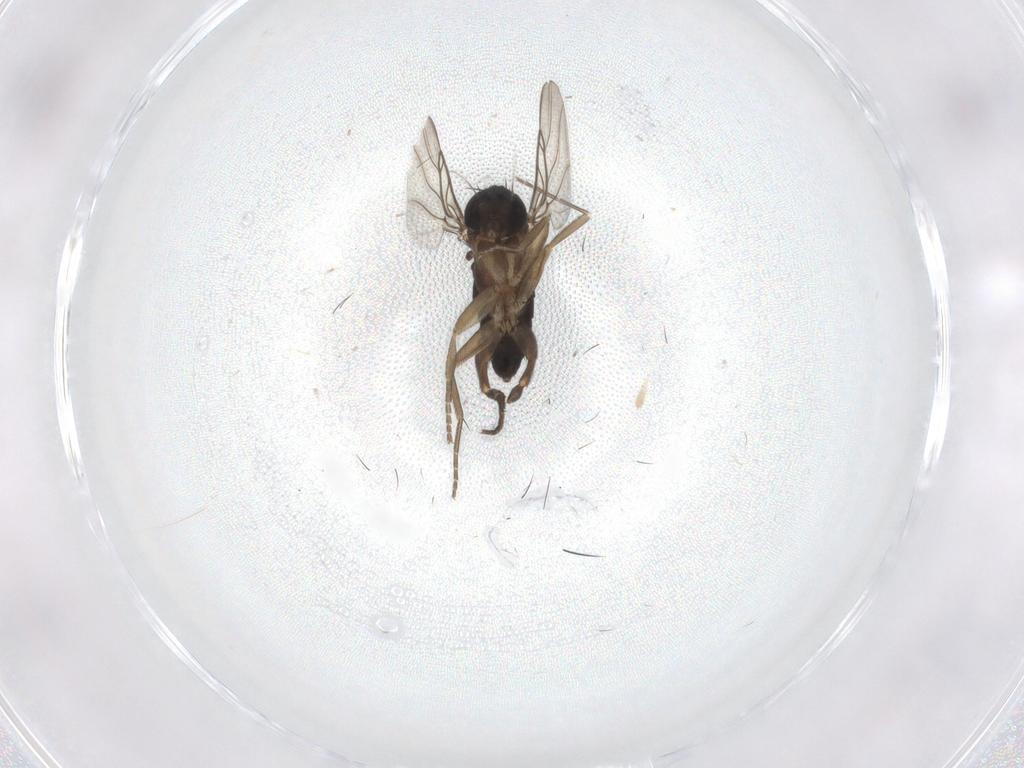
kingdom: Animalia
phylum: Arthropoda
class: Insecta
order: Diptera
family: Phoridae
